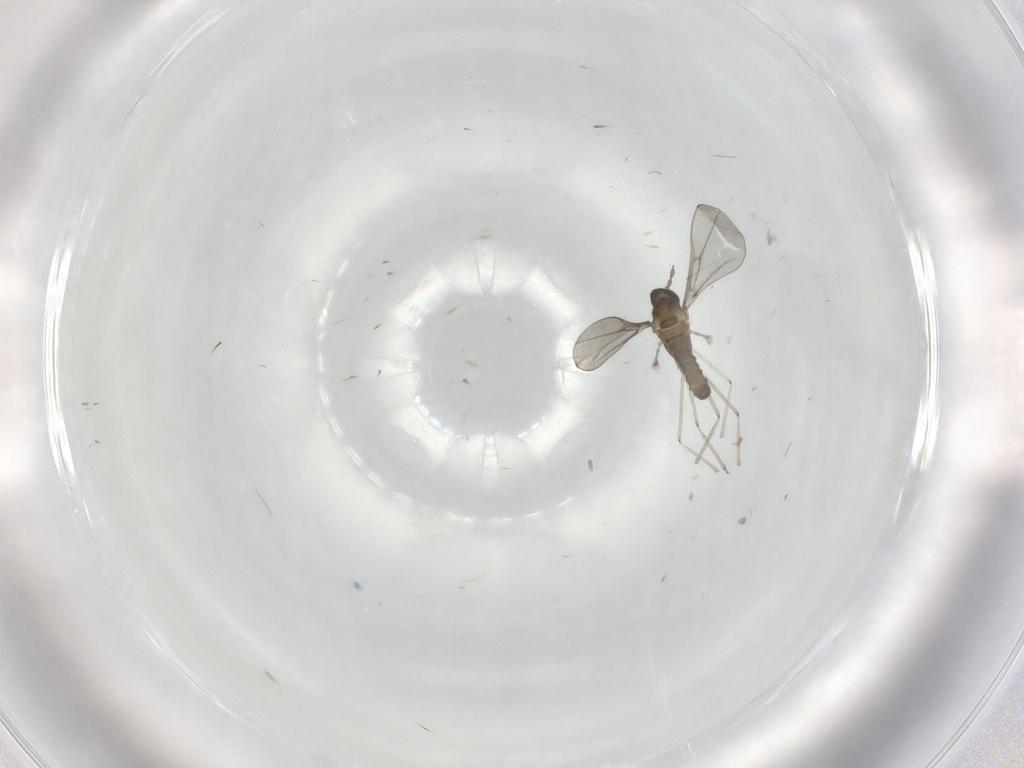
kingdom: Animalia
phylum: Arthropoda
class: Insecta
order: Diptera
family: Cecidomyiidae
